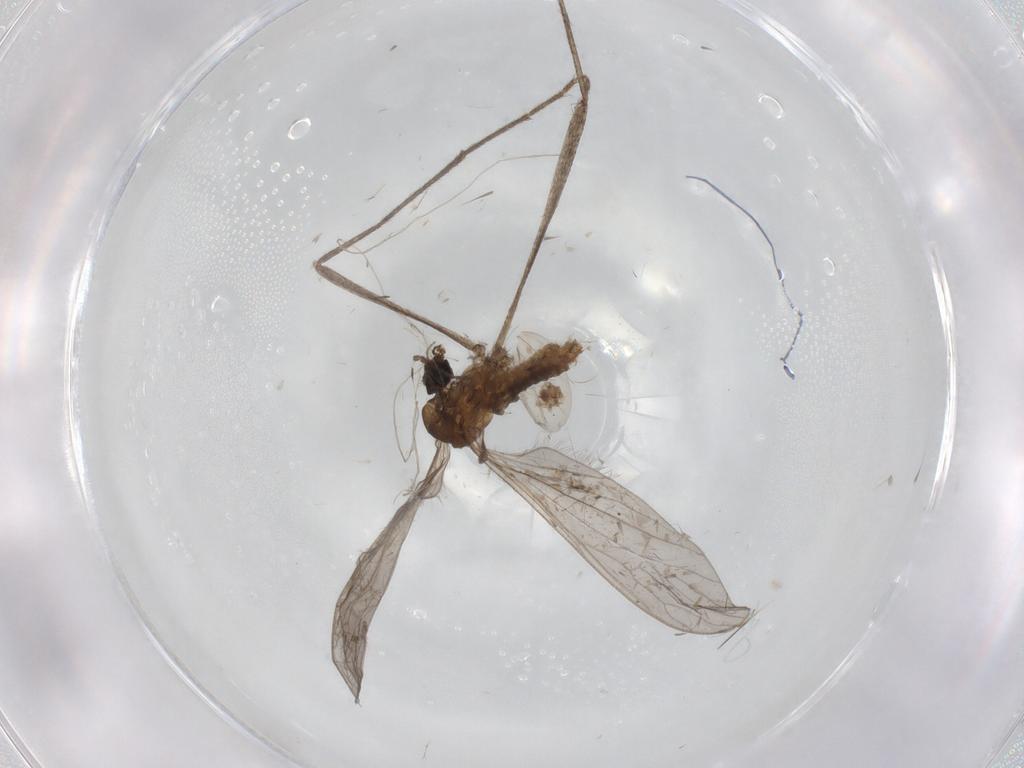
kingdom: Animalia
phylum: Arthropoda
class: Insecta
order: Diptera
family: Limoniidae
